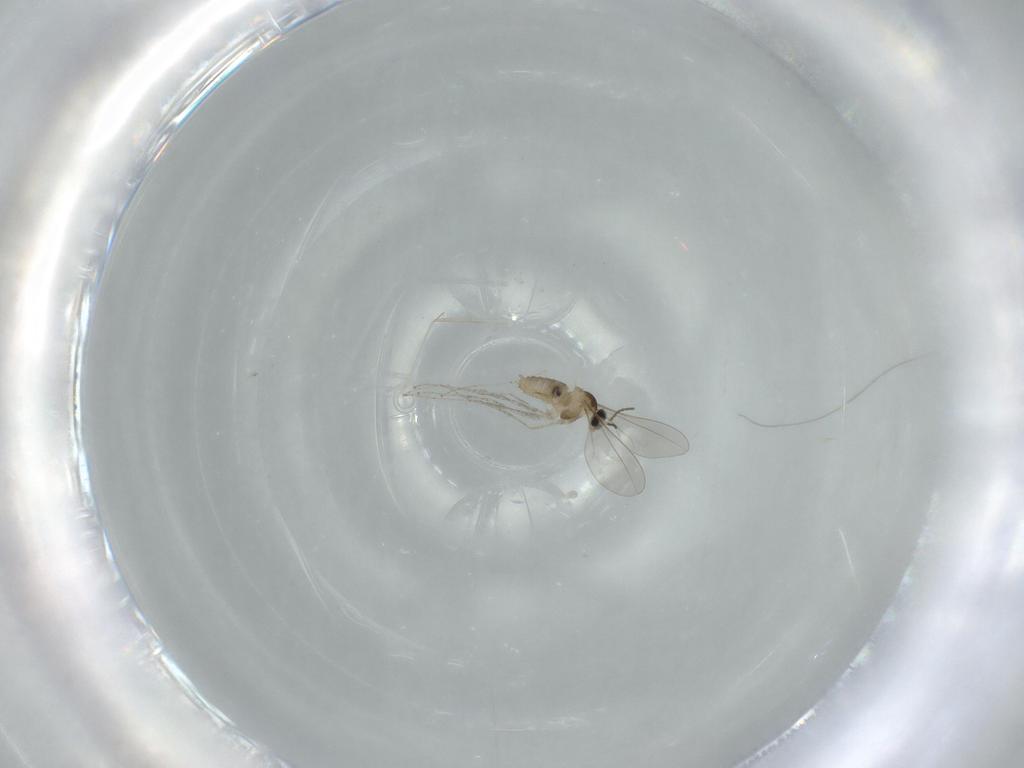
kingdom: Animalia
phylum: Arthropoda
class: Insecta
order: Diptera
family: Cecidomyiidae
